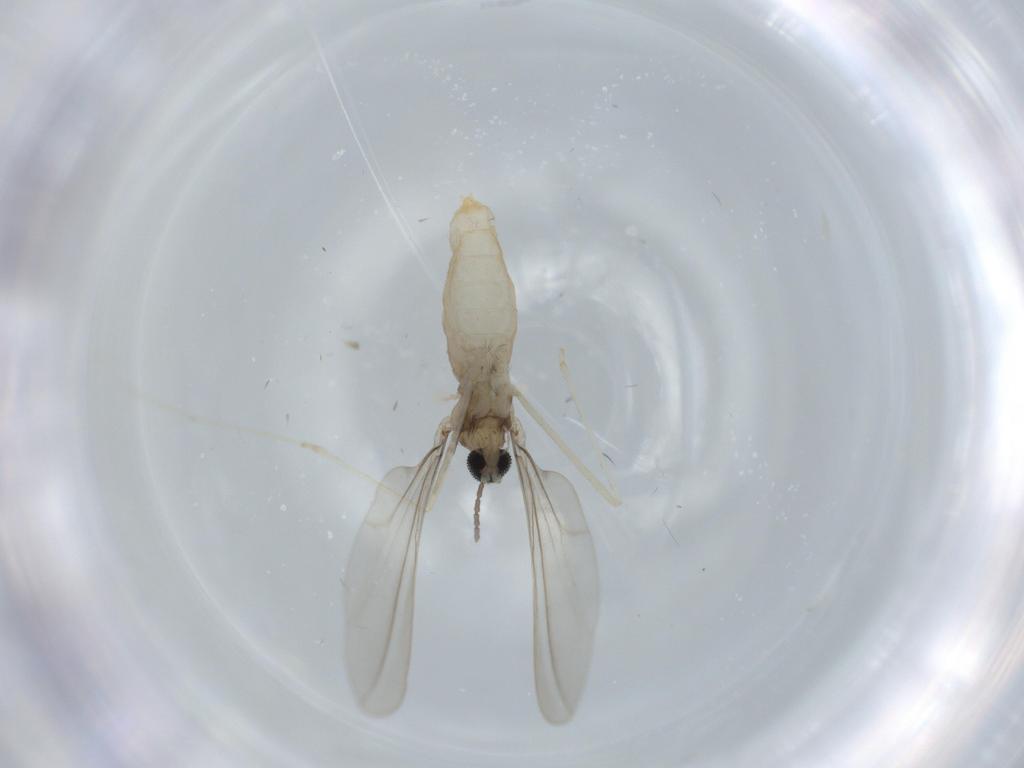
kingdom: Animalia
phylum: Arthropoda
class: Insecta
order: Diptera
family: Cecidomyiidae
